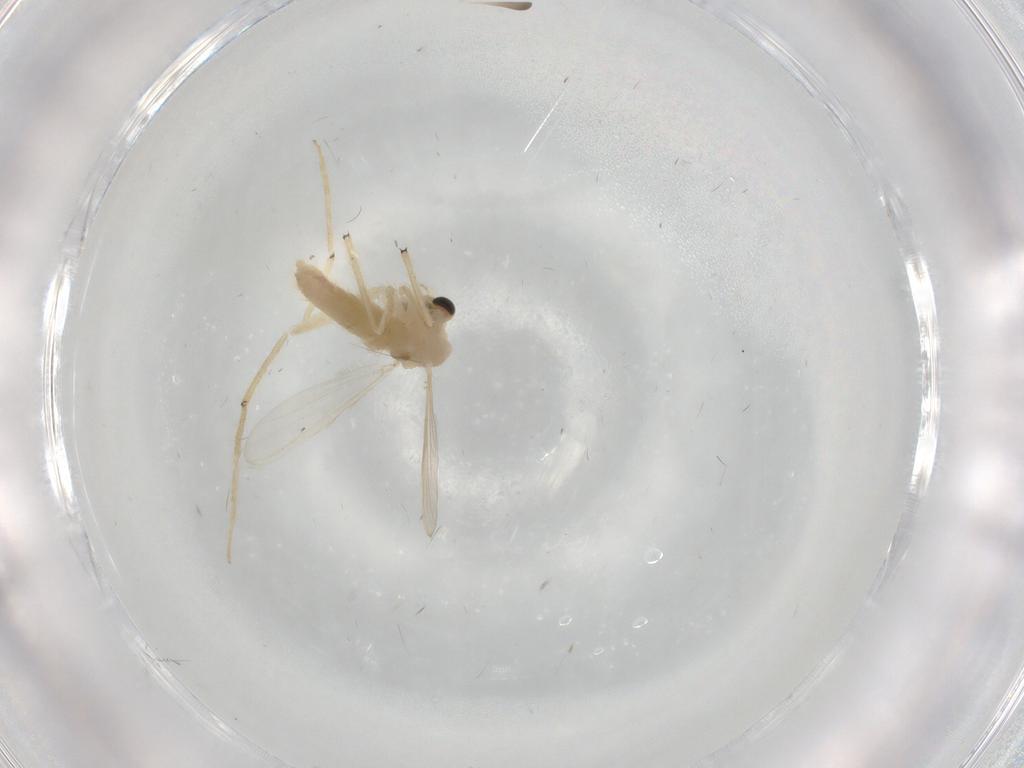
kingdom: Animalia
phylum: Arthropoda
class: Insecta
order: Diptera
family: Chironomidae
